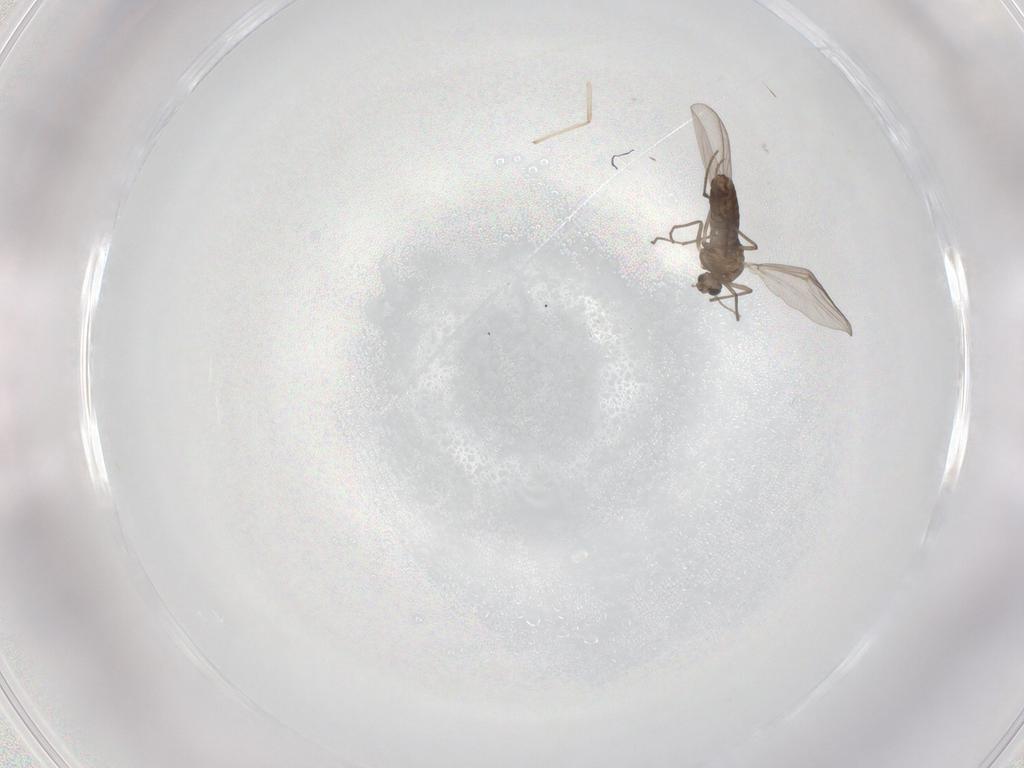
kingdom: Animalia
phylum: Arthropoda
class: Insecta
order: Diptera
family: Chironomidae
